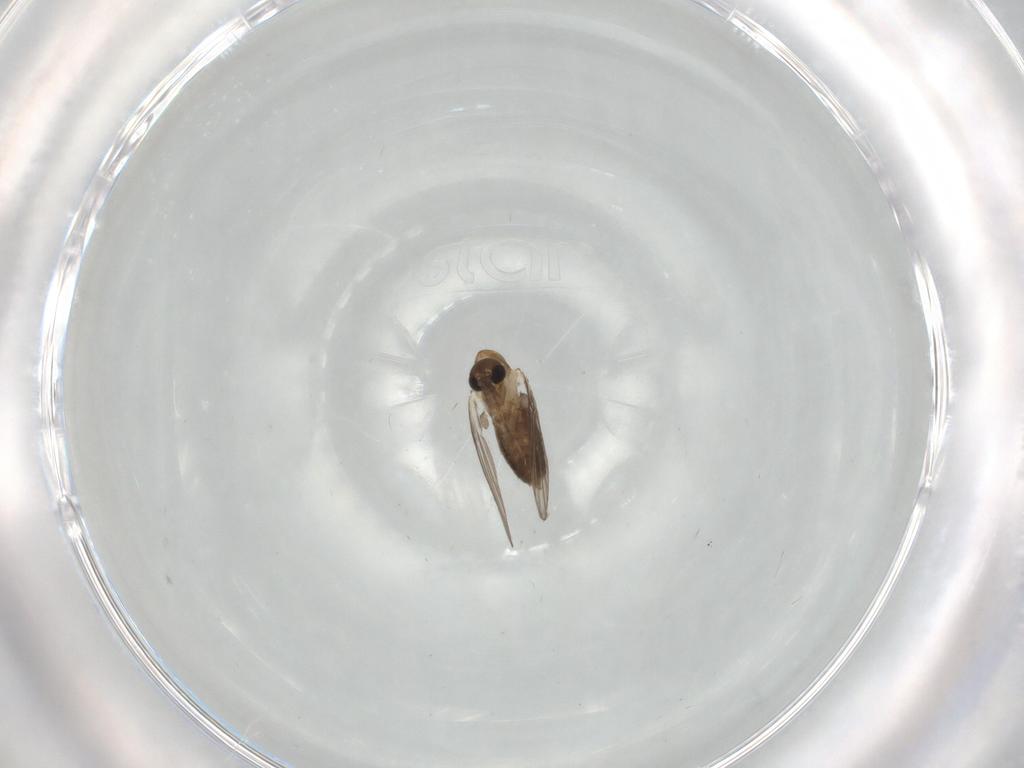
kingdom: Animalia
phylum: Arthropoda
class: Insecta
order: Diptera
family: Psychodidae
